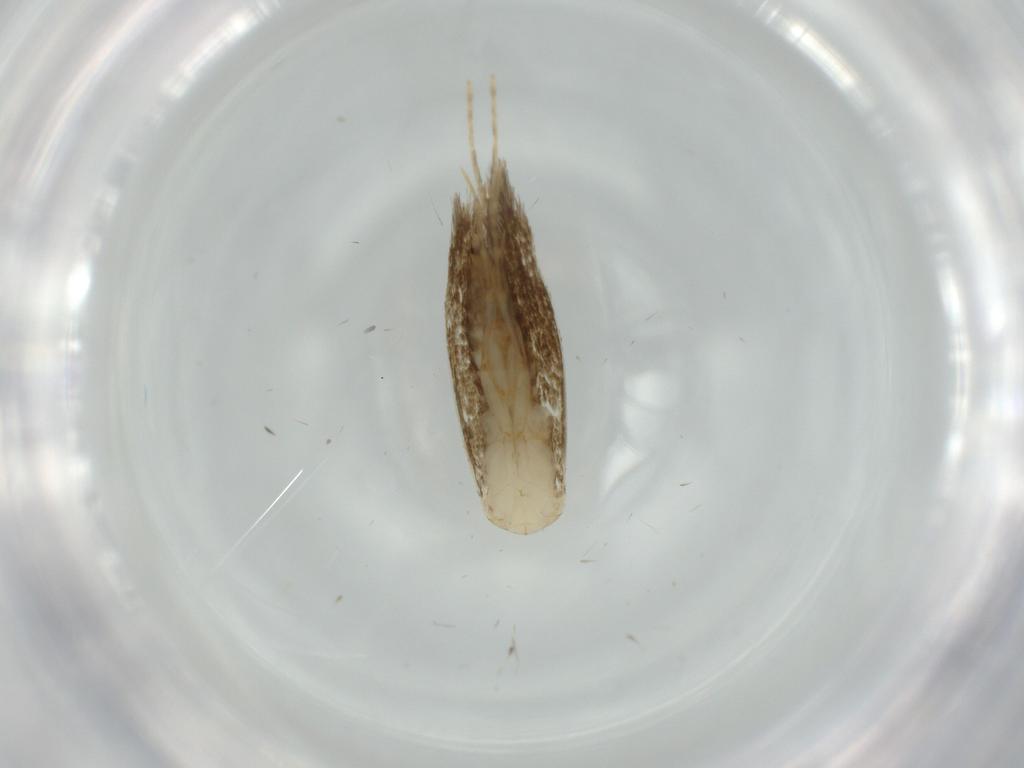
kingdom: Animalia
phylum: Arthropoda
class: Insecta
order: Lepidoptera
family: Tineidae
